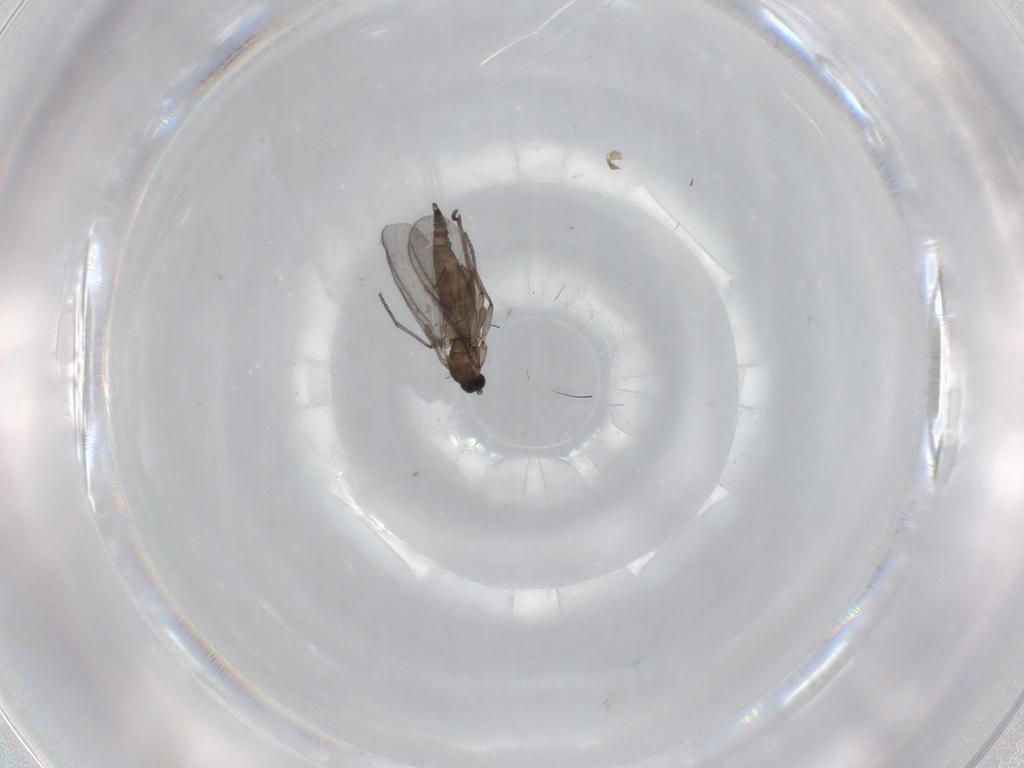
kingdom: Animalia
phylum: Arthropoda
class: Insecta
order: Diptera
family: Sciaridae
